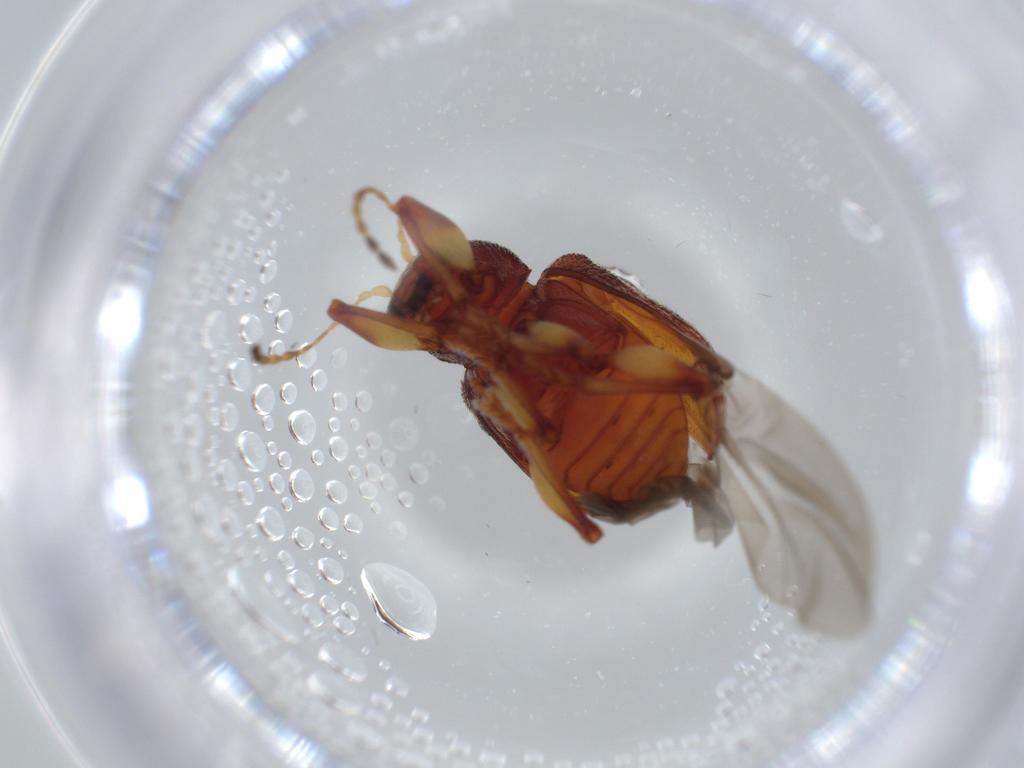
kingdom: Animalia
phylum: Arthropoda
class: Insecta
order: Coleoptera
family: Chrysomelidae
